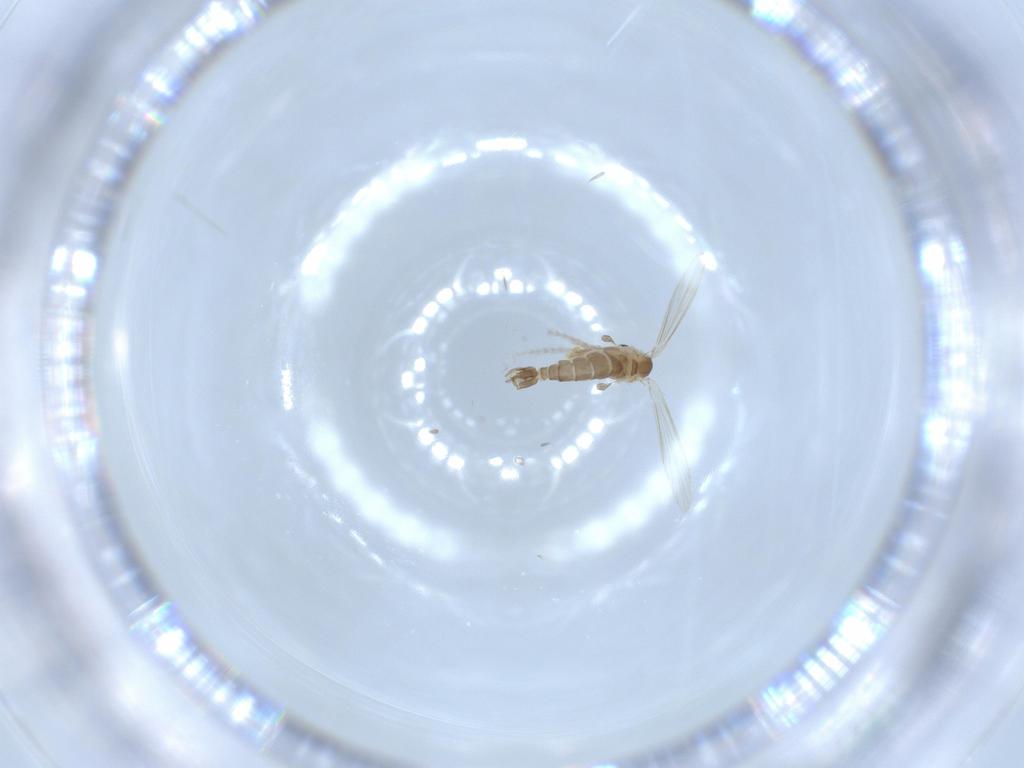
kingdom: Animalia
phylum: Arthropoda
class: Insecta
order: Diptera
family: Psychodidae
